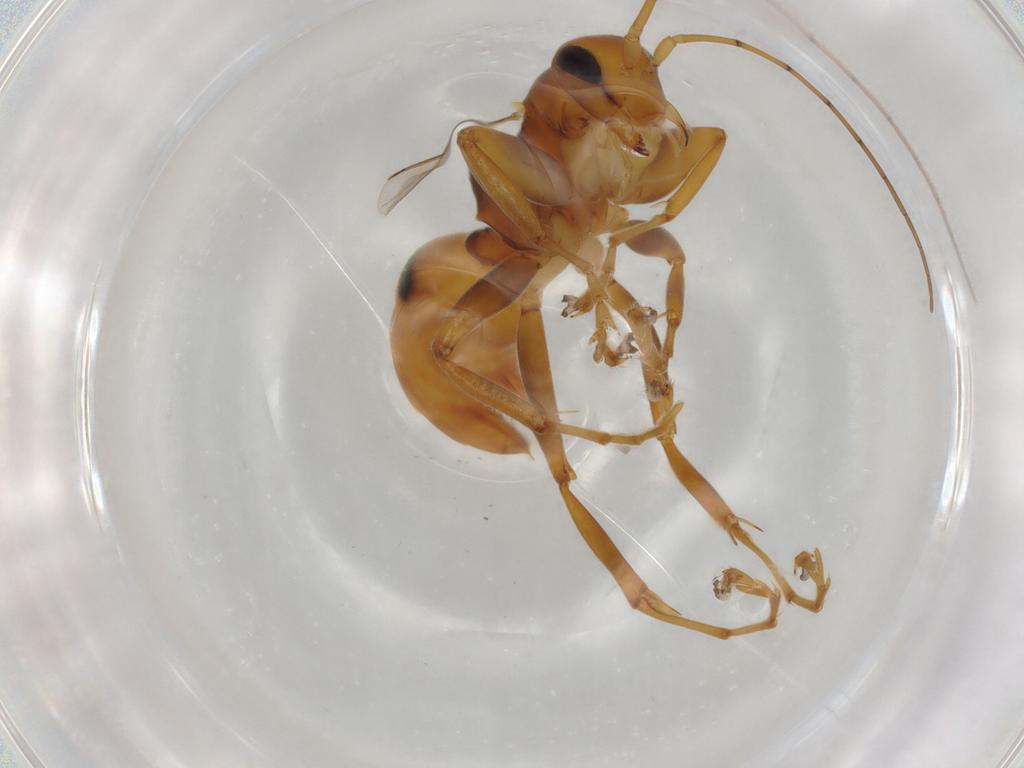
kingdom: Animalia
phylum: Arthropoda
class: Insecta
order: Hymenoptera
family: Rhopalosomatidae
